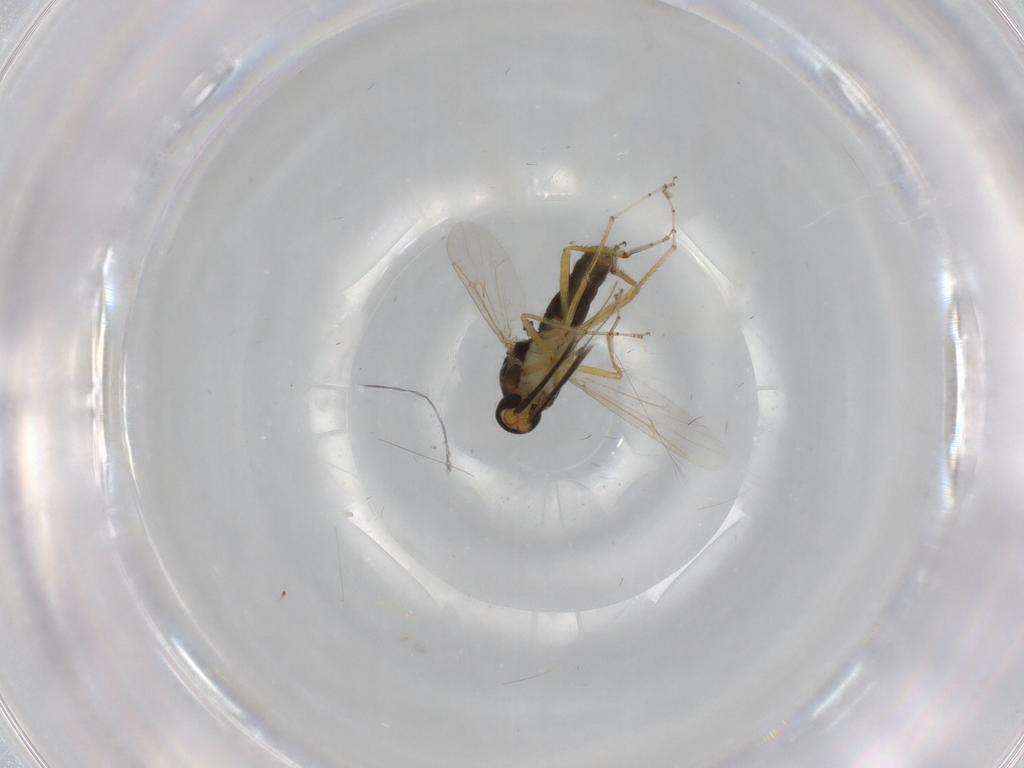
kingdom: Animalia
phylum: Arthropoda
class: Insecta
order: Diptera
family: Ceratopogonidae
